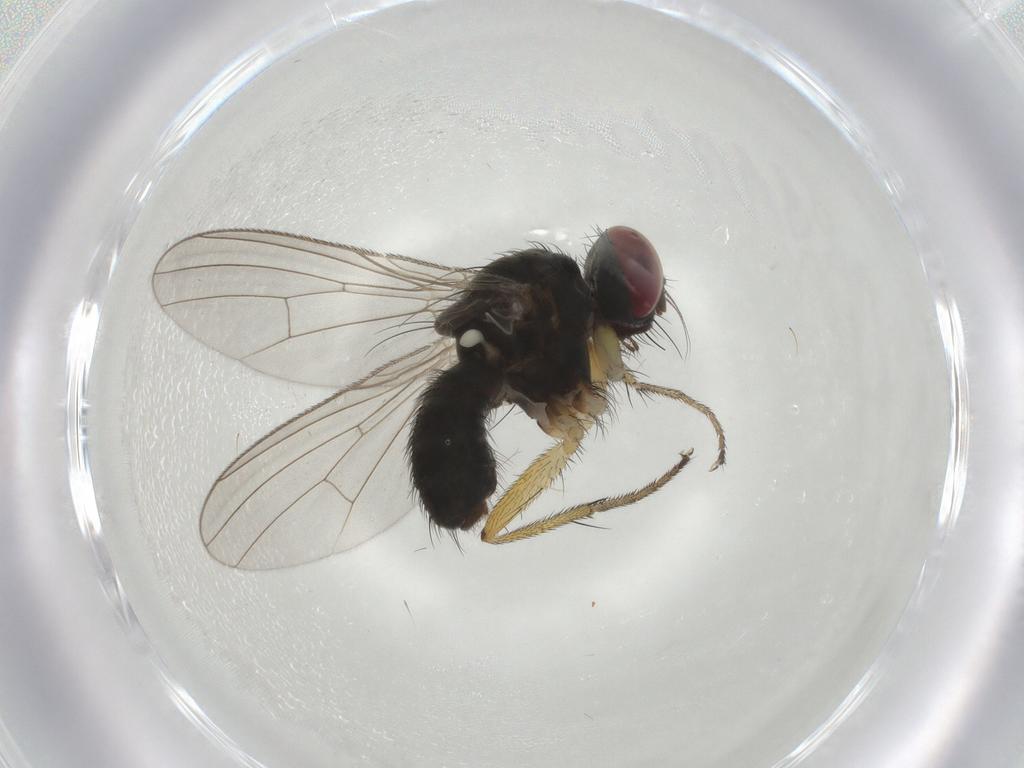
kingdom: Animalia
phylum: Arthropoda
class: Insecta
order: Diptera
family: Muscidae
